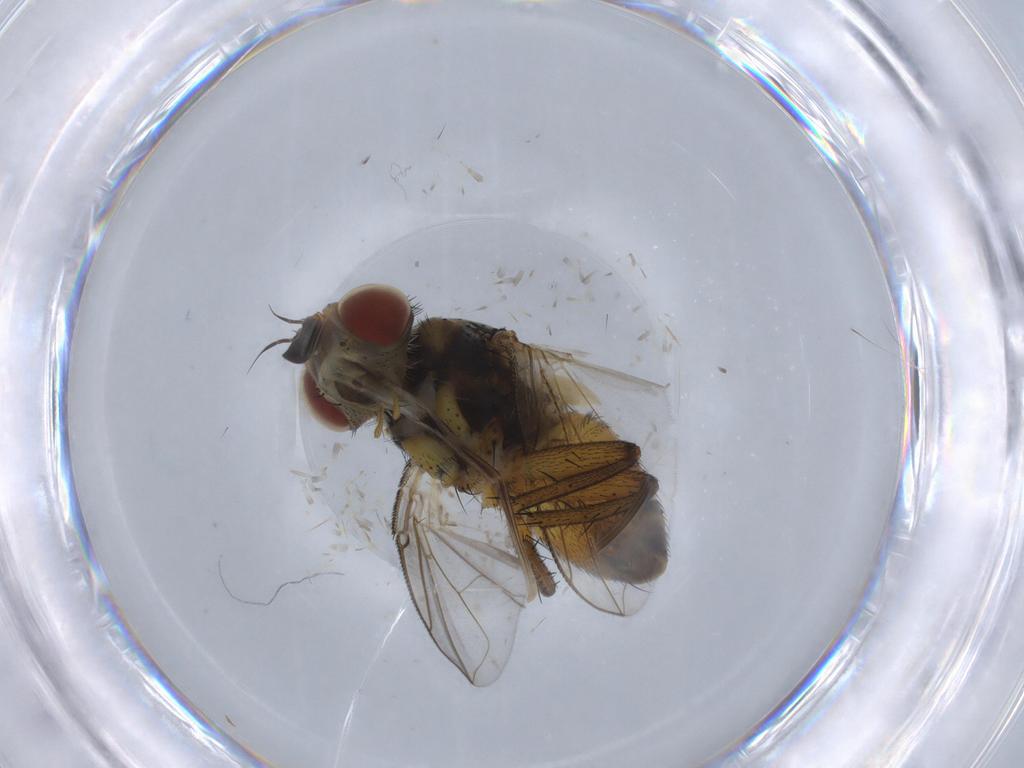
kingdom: Animalia
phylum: Arthropoda
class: Insecta
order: Diptera
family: Tachinidae
